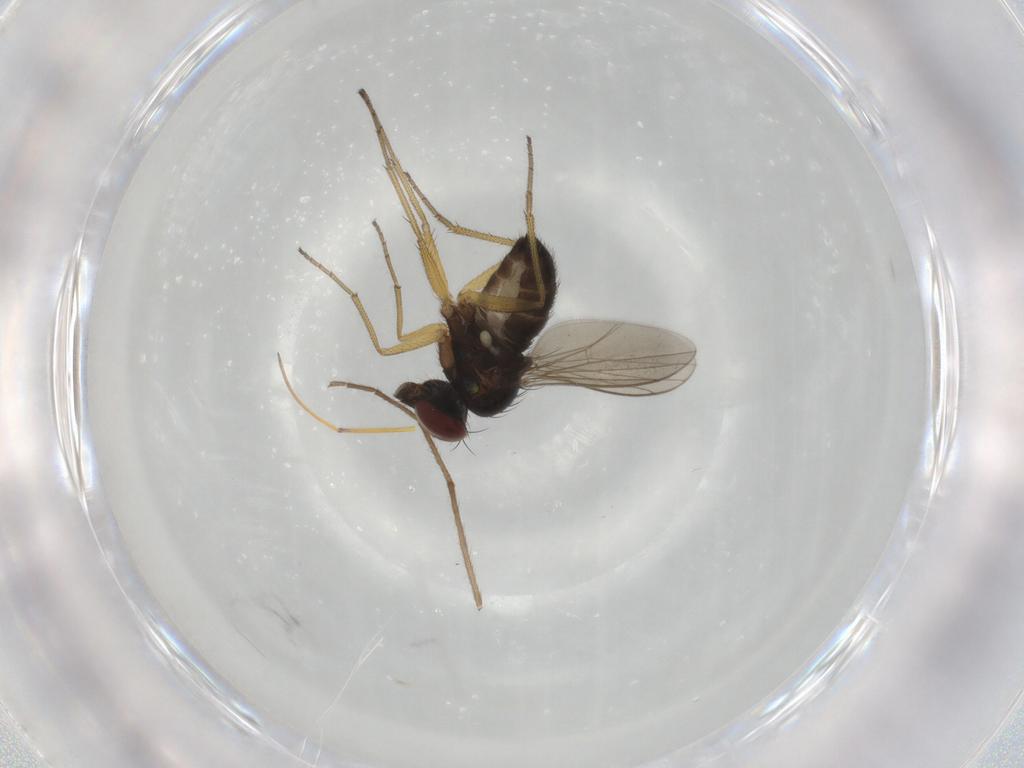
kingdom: Animalia
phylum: Arthropoda
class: Insecta
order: Diptera
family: Dolichopodidae
